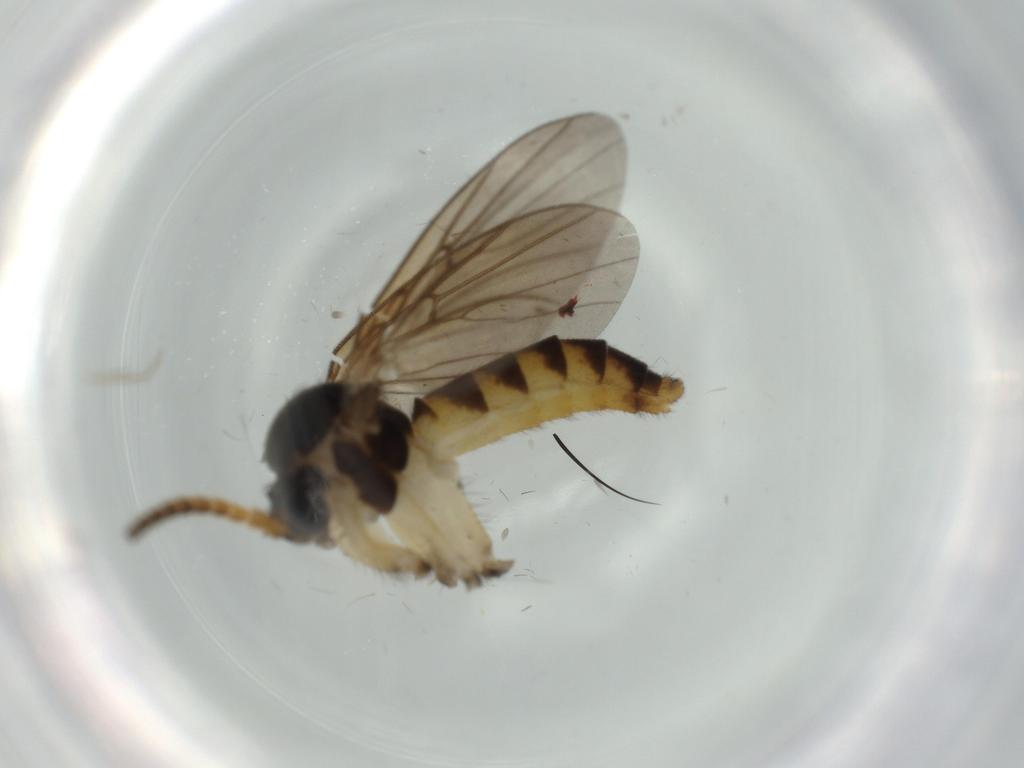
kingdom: Animalia
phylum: Arthropoda
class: Insecta
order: Diptera
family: Cecidomyiidae
